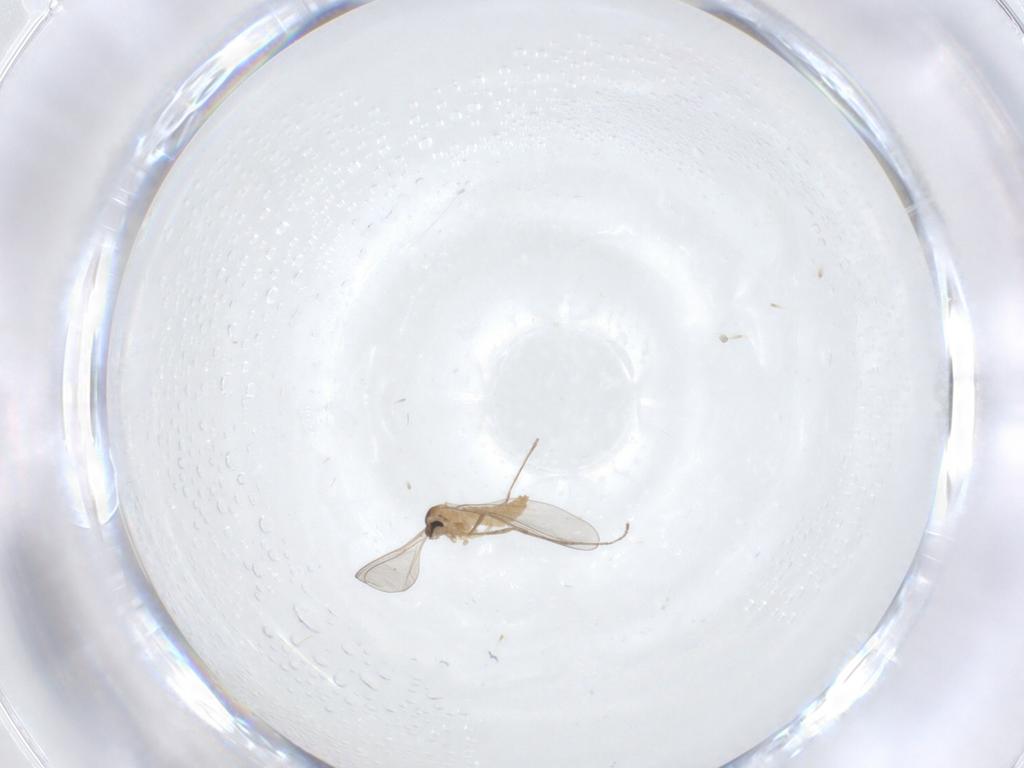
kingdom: Animalia
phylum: Arthropoda
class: Insecta
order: Diptera
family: Cecidomyiidae
